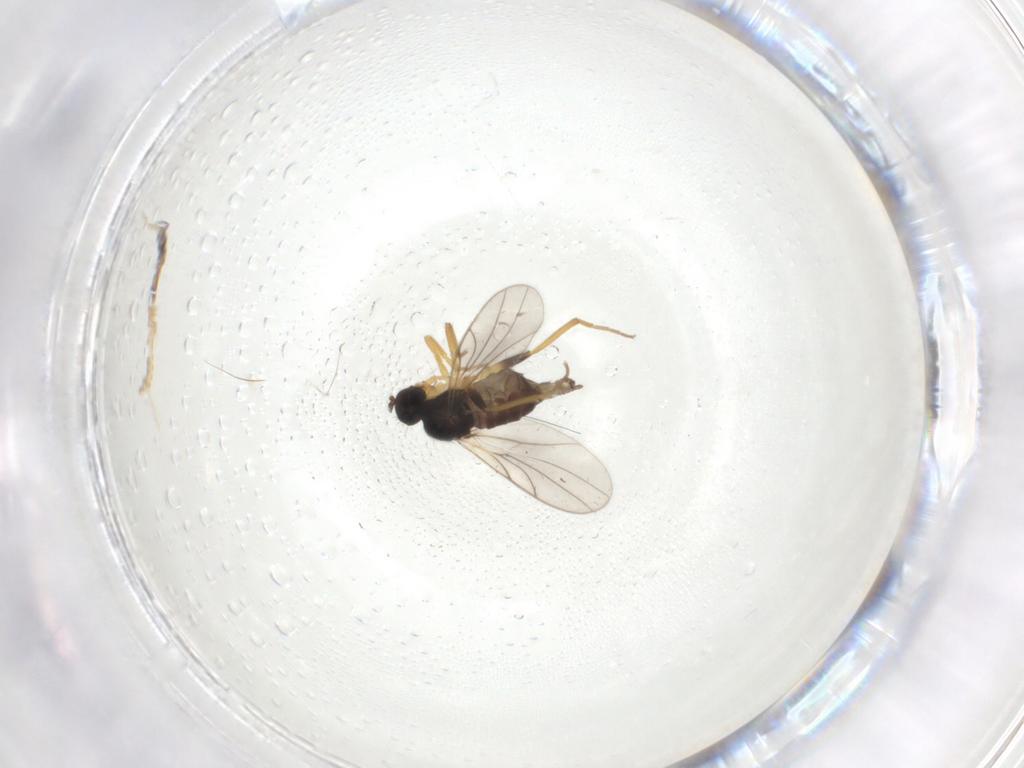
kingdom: Animalia
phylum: Arthropoda
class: Insecta
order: Diptera
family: Hybotidae
